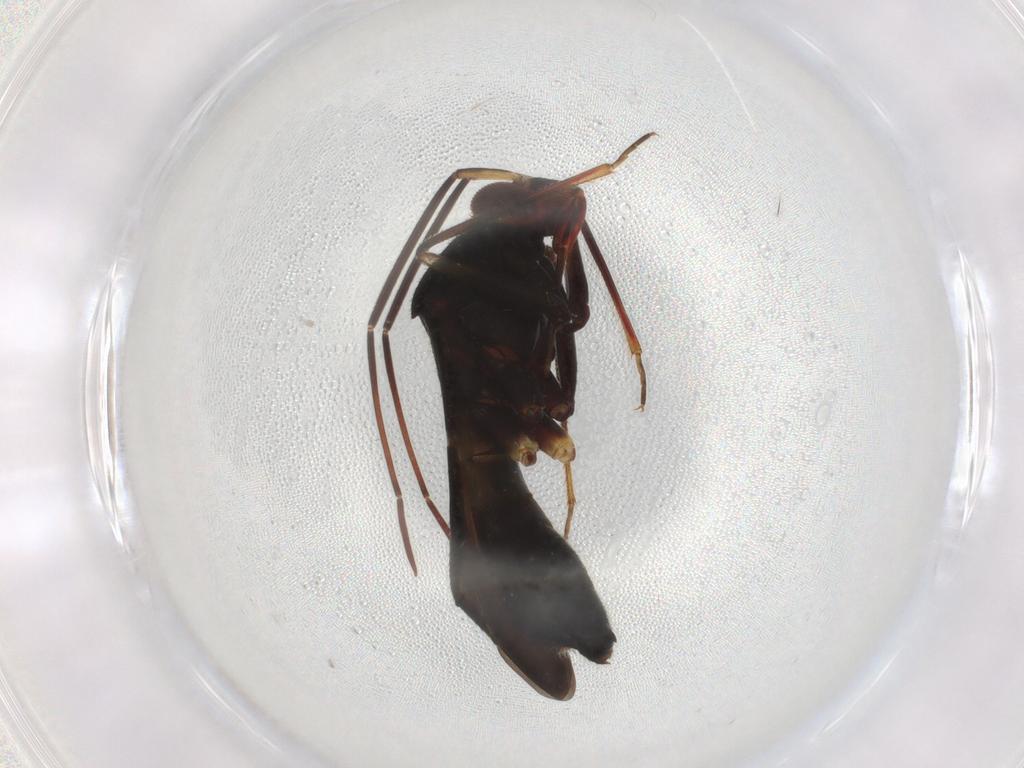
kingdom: Animalia
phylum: Arthropoda
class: Insecta
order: Hemiptera
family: Miridae
